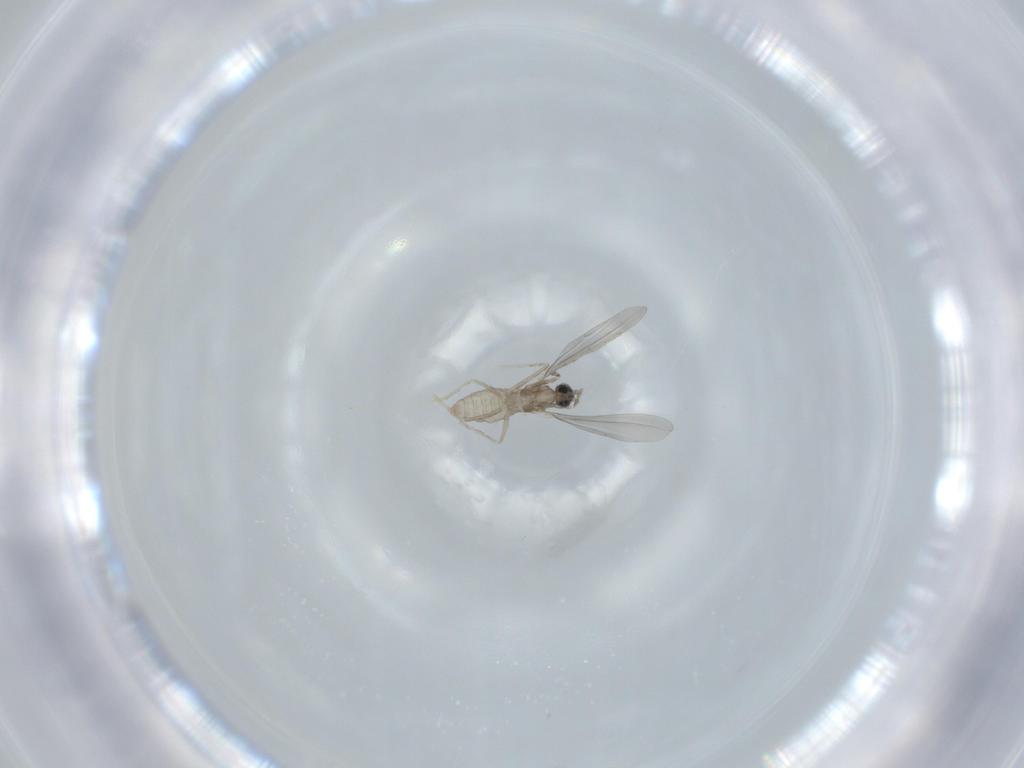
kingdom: Animalia
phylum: Arthropoda
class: Insecta
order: Diptera
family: Cecidomyiidae
